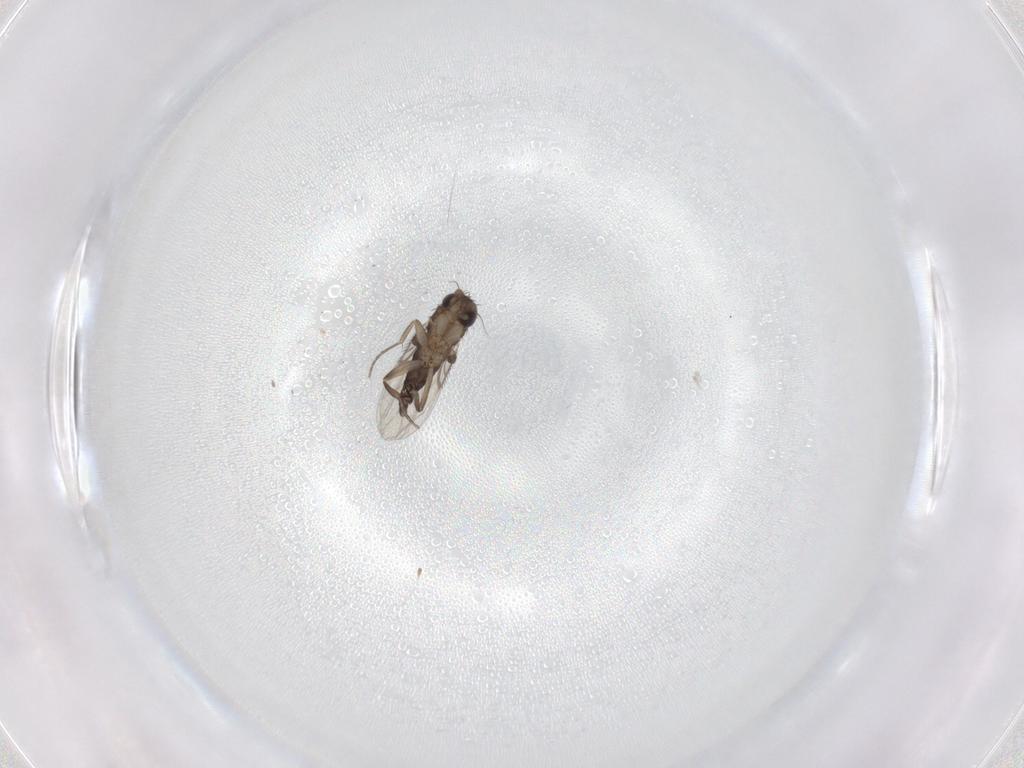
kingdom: Animalia
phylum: Arthropoda
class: Insecta
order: Diptera
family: Phoridae
